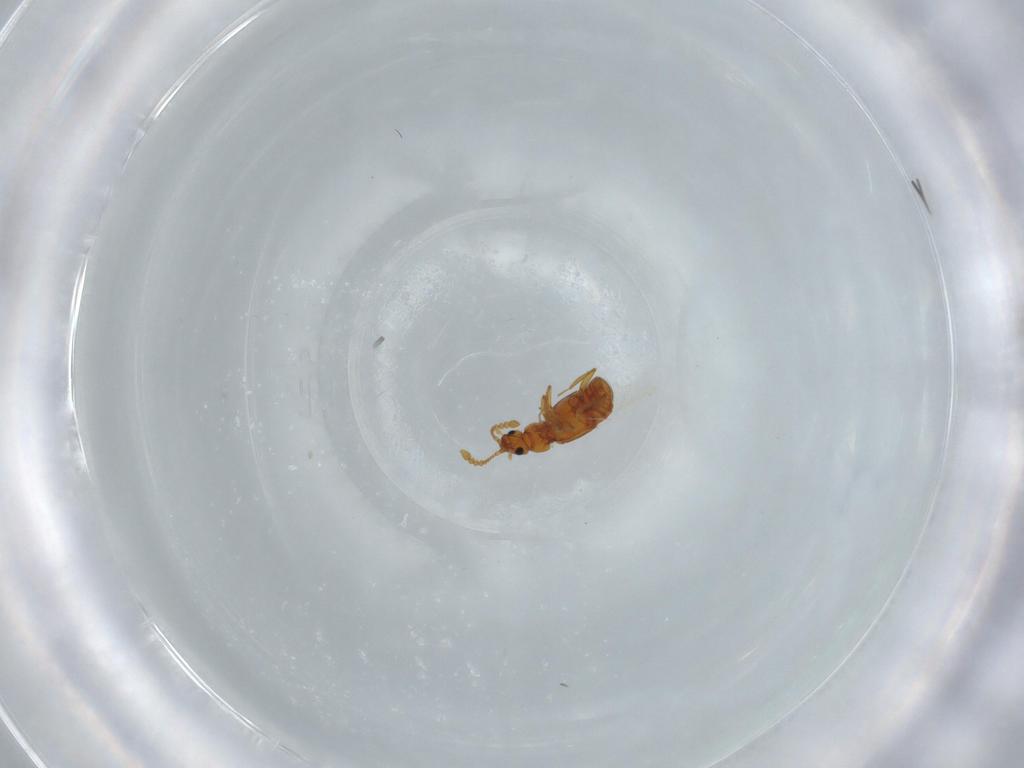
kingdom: Animalia
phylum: Arthropoda
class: Insecta
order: Coleoptera
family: Staphylinidae
